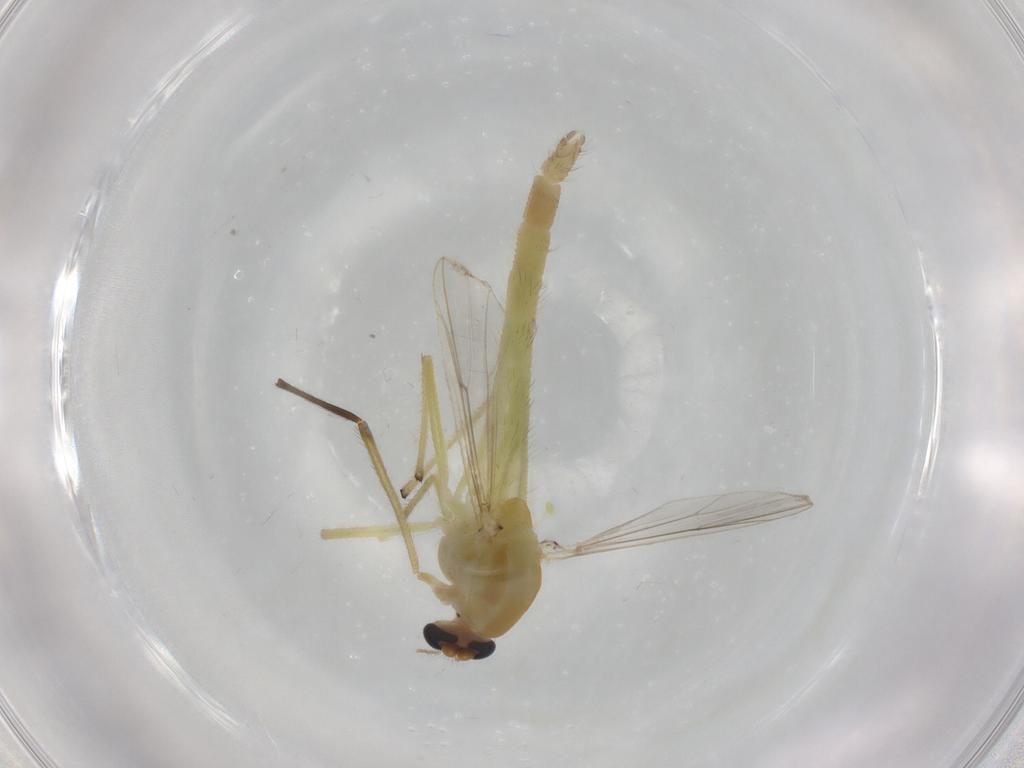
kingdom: Animalia
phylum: Arthropoda
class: Insecta
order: Diptera
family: Chironomidae
